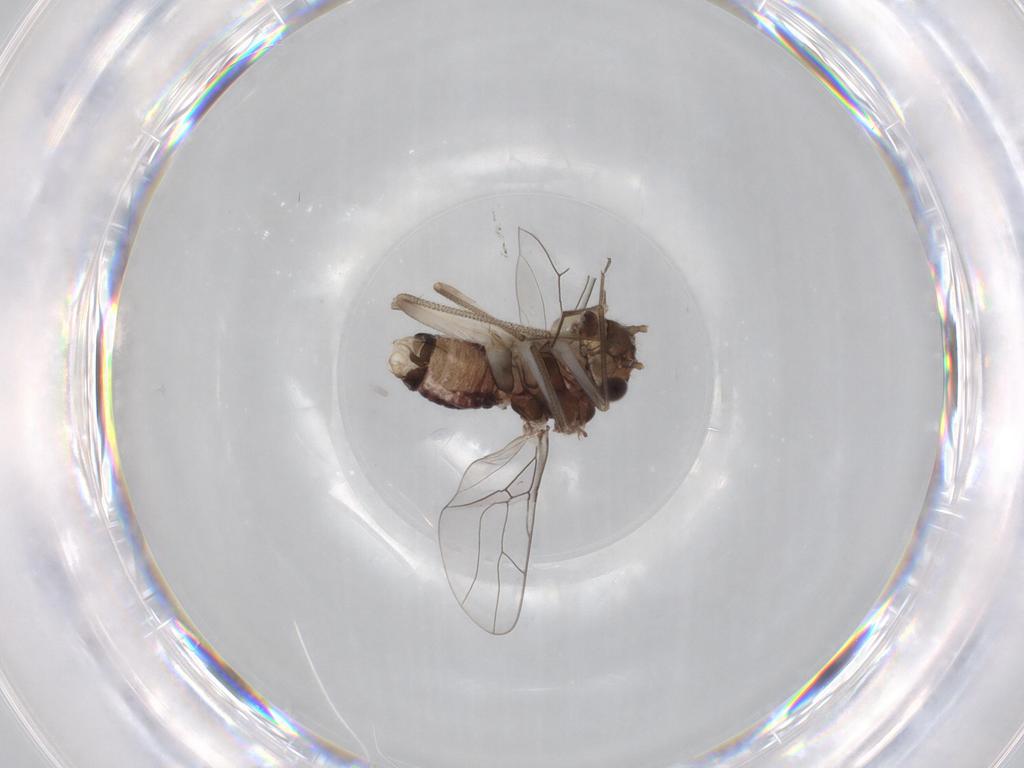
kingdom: Animalia
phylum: Arthropoda
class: Insecta
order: Psocodea
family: Lachesillidae
